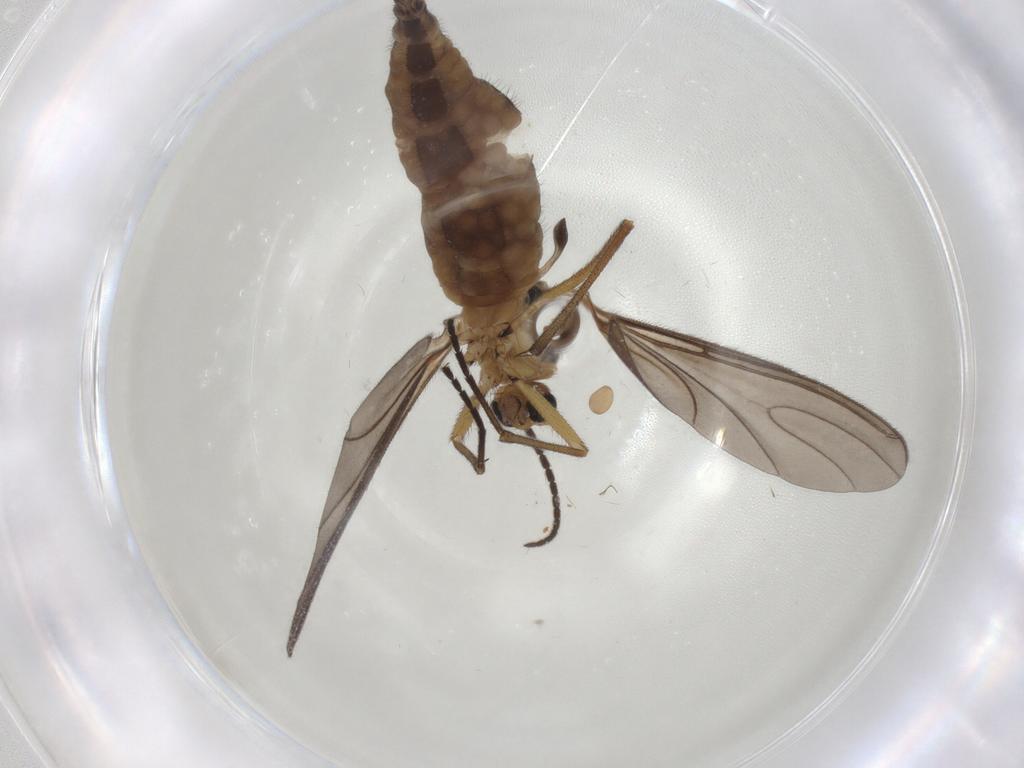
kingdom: Animalia
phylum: Arthropoda
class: Insecta
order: Diptera
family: Sciaridae
